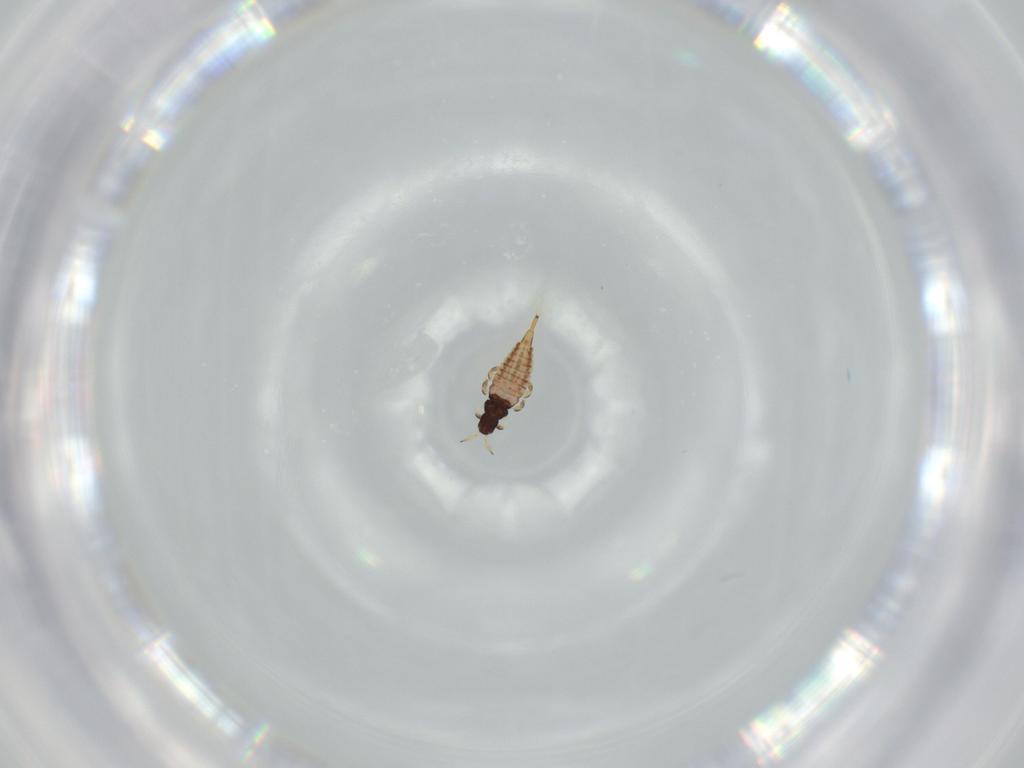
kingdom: Animalia
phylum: Arthropoda
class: Insecta
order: Thysanoptera
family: Phlaeothripidae
